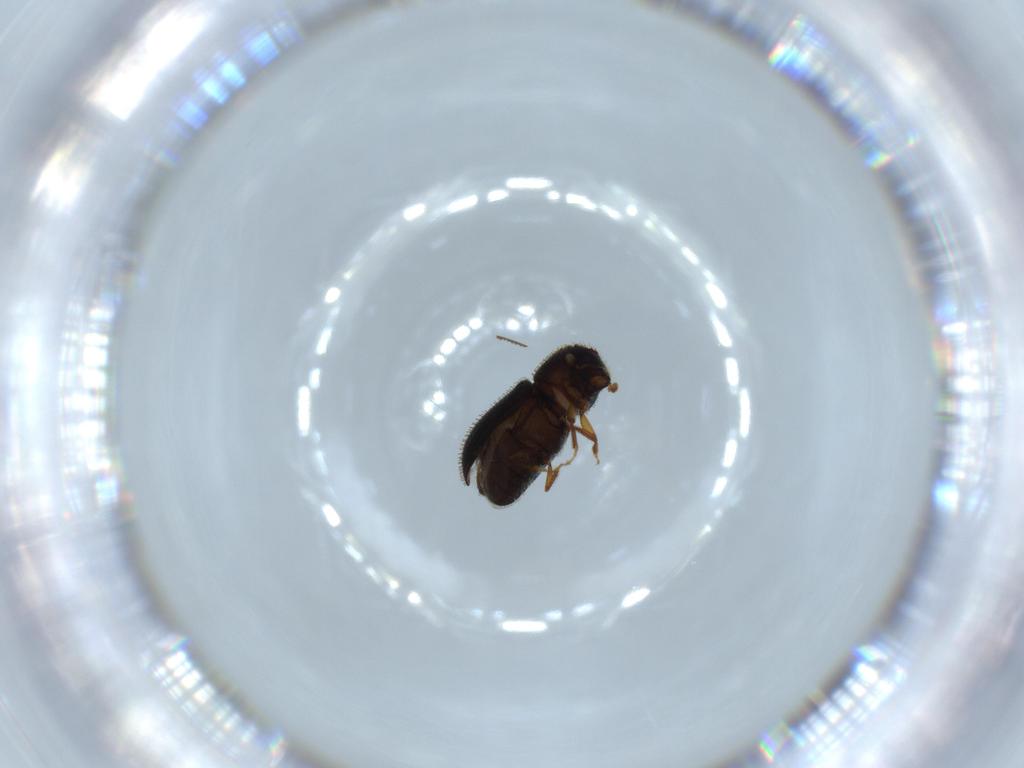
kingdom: Animalia
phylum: Arthropoda
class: Insecta
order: Coleoptera
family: Curculionidae
